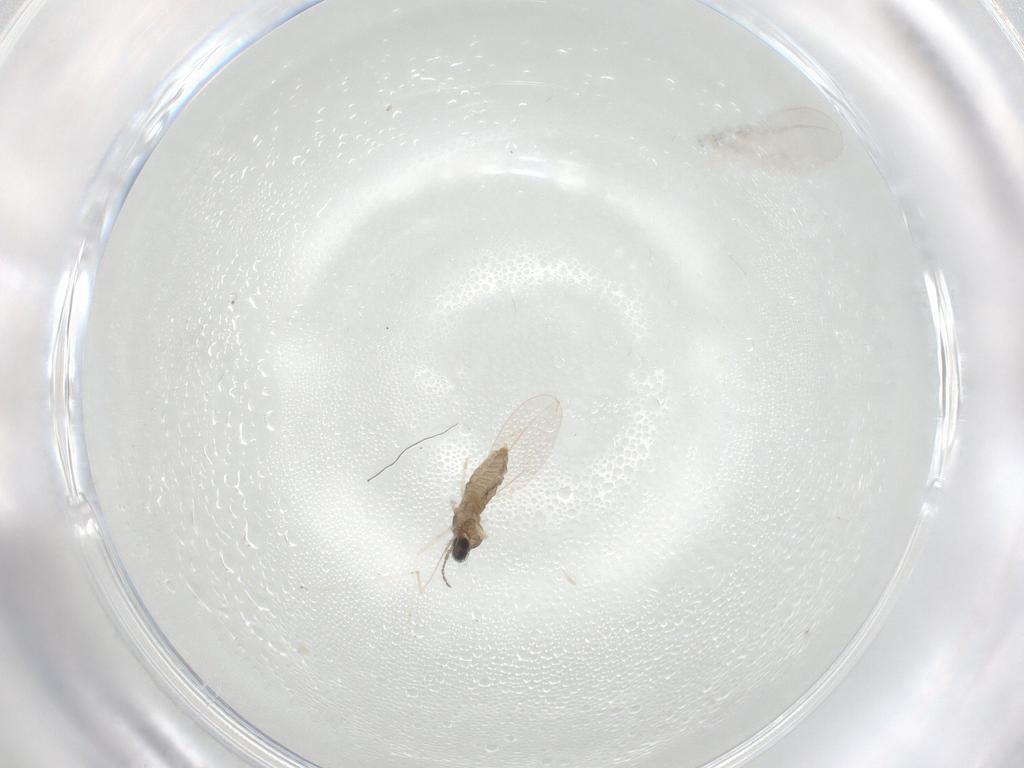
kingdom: Animalia
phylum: Arthropoda
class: Insecta
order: Diptera
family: Cecidomyiidae
